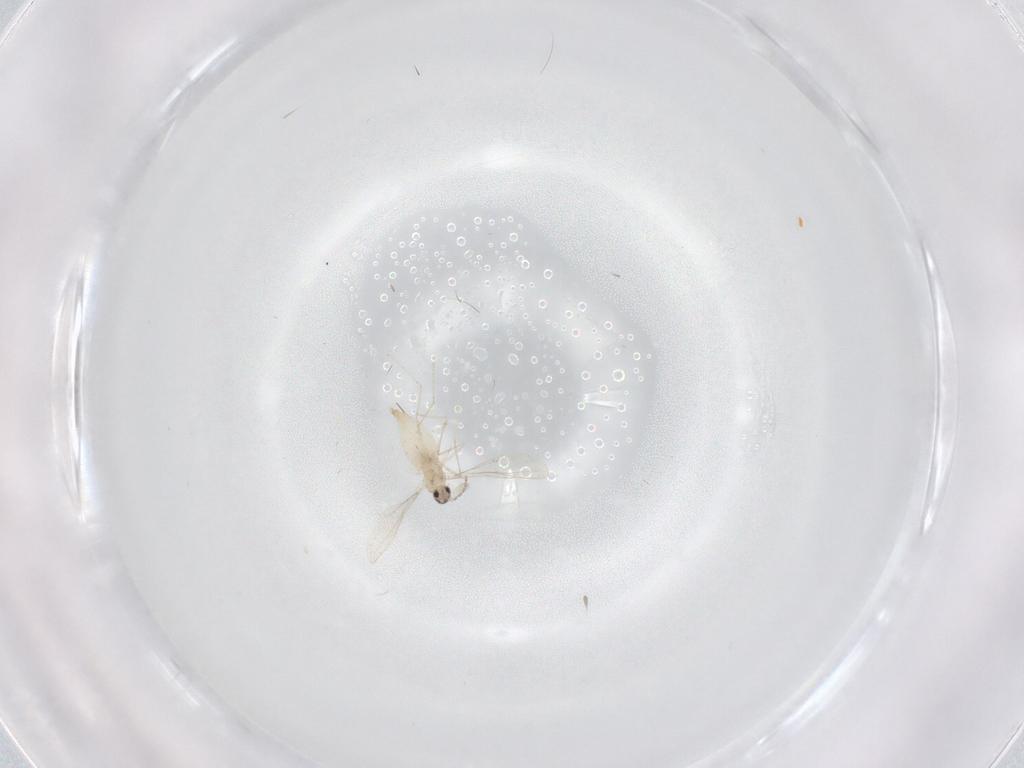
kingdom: Animalia
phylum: Arthropoda
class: Insecta
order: Diptera
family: Cecidomyiidae
